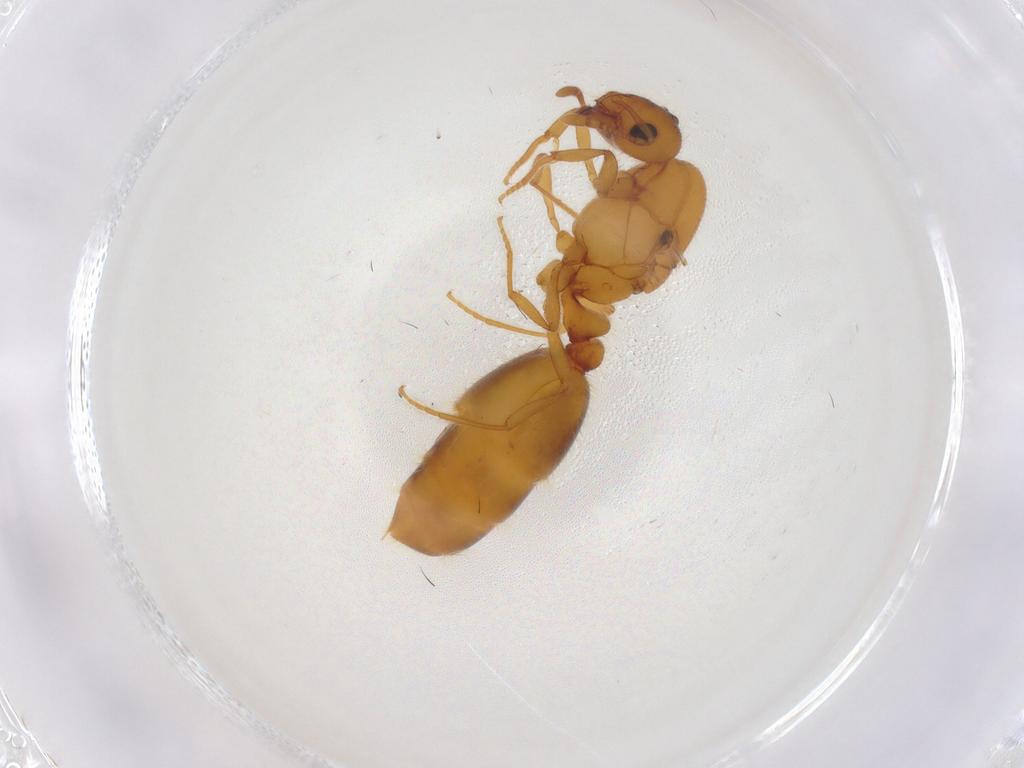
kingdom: Animalia
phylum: Arthropoda
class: Insecta
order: Hymenoptera
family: Formicidae
